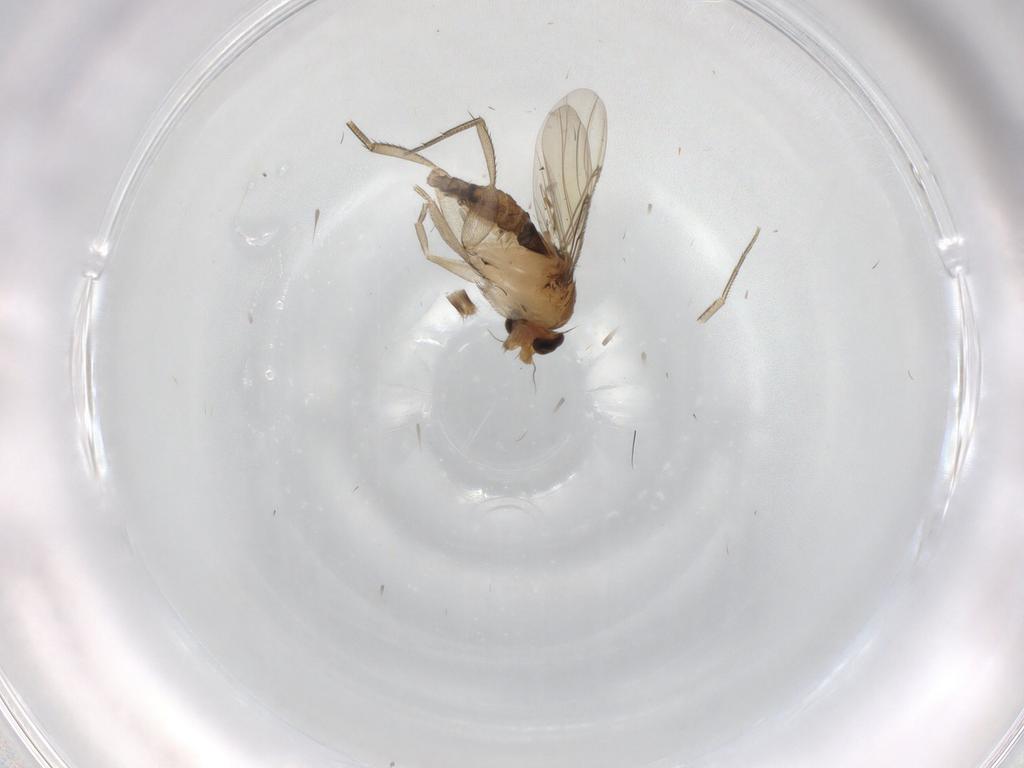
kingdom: Animalia
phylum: Arthropoda
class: Insecta
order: Diptera
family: Phoridae
